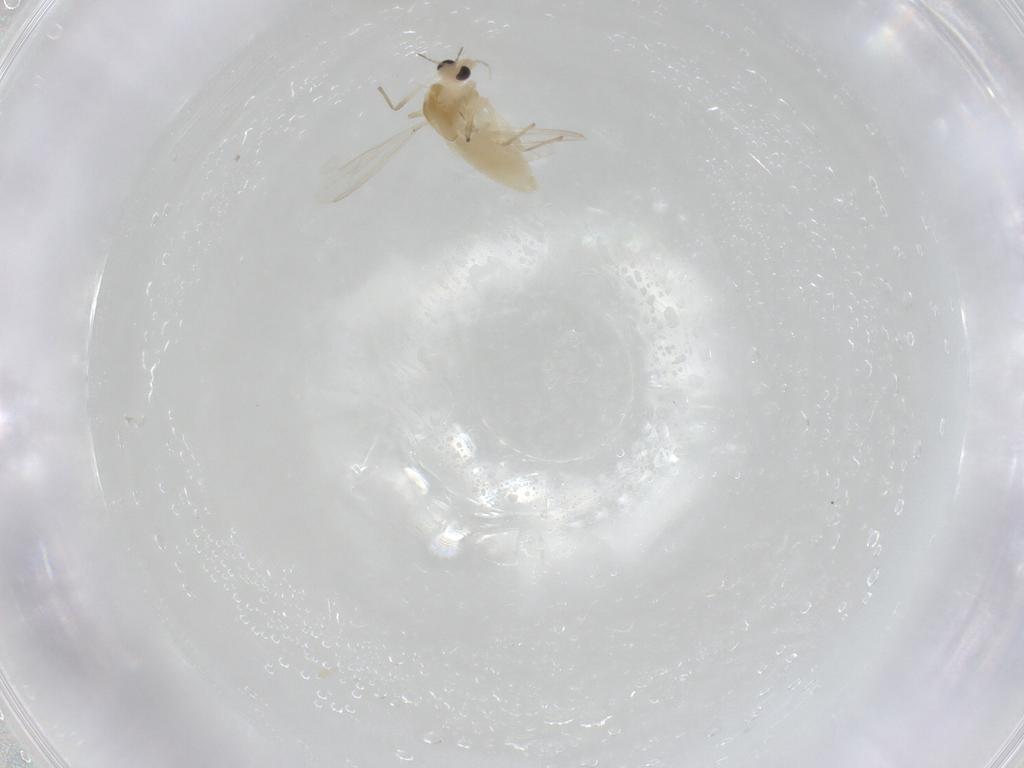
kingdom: Animalia
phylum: Arthropoda
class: Insecta
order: Diptera
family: Chironomidae
